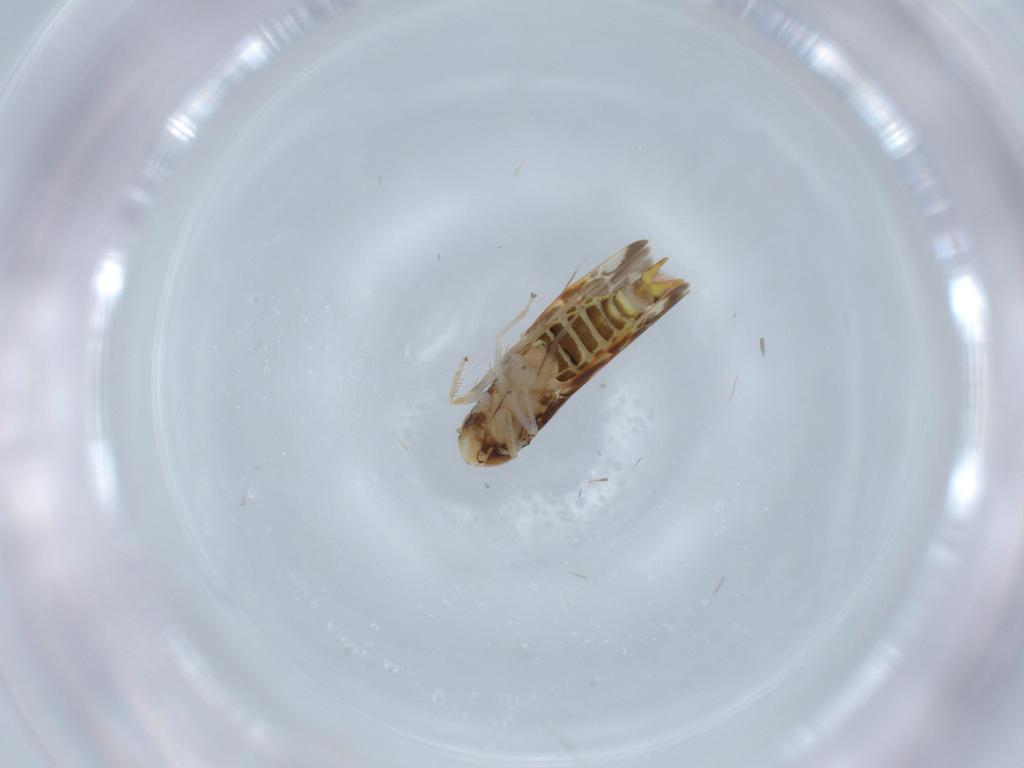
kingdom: Animalia
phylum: Arthropoda
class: Insecta
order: Hemiptera
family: Cicadellidae
